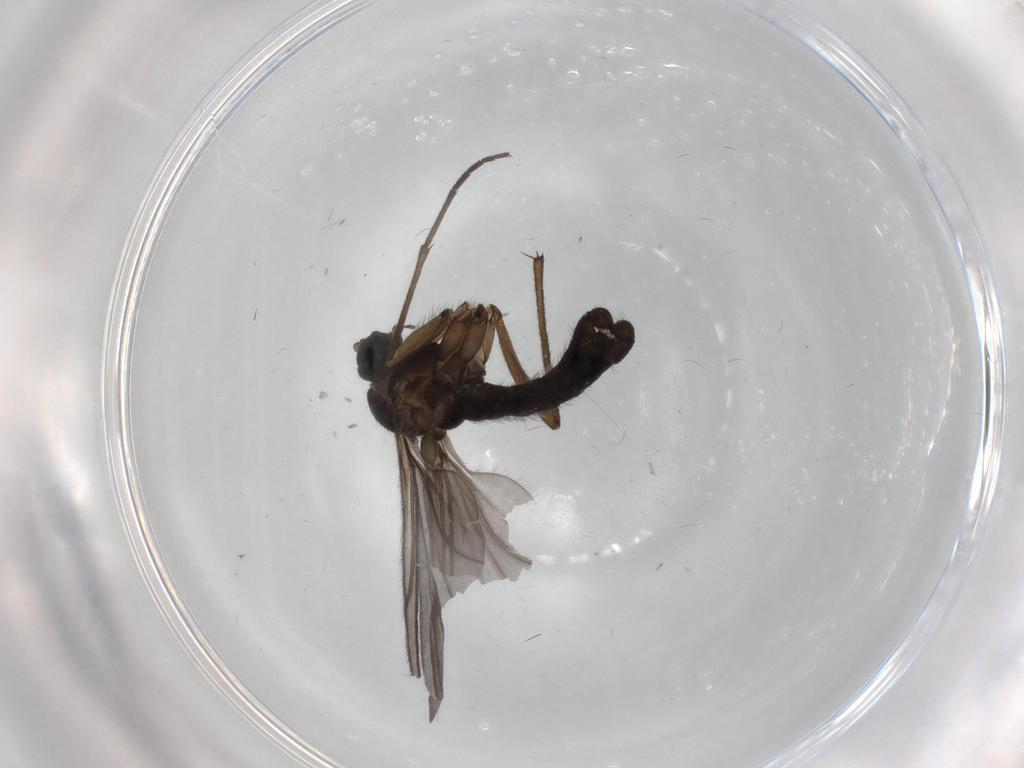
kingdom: Animalia
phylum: Arthropoda
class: Insecta
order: Diptera
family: Sciaridae
